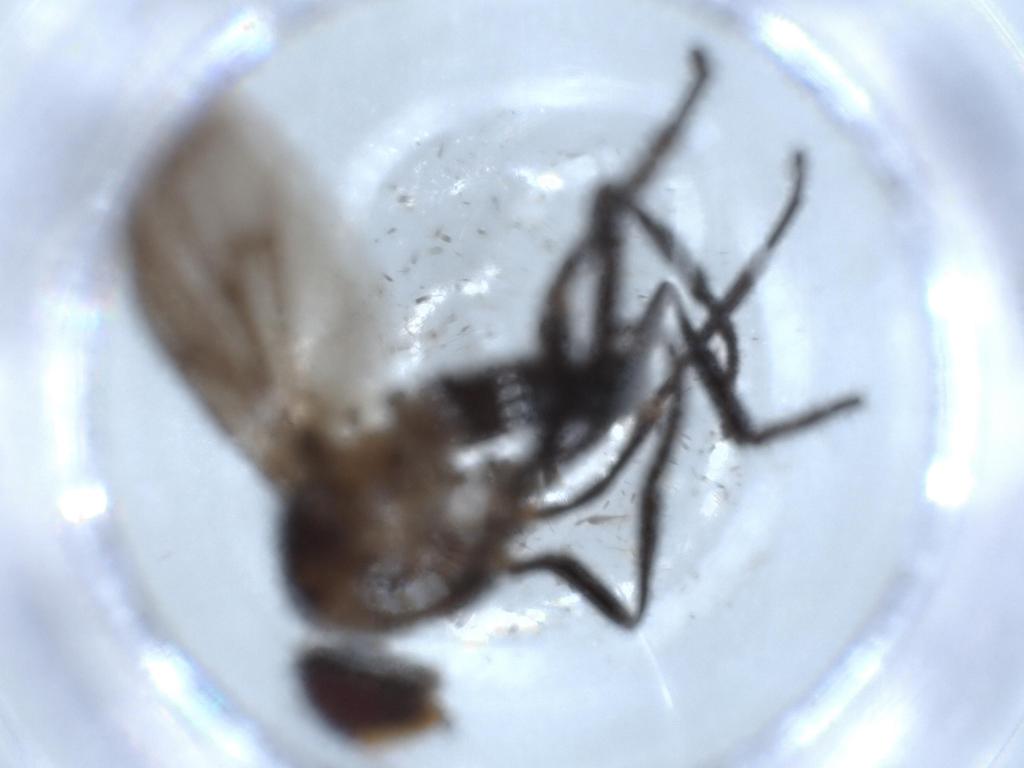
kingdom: Animalia
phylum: Arthropoda
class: Insecta
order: Diptera
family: Calliphoridae
